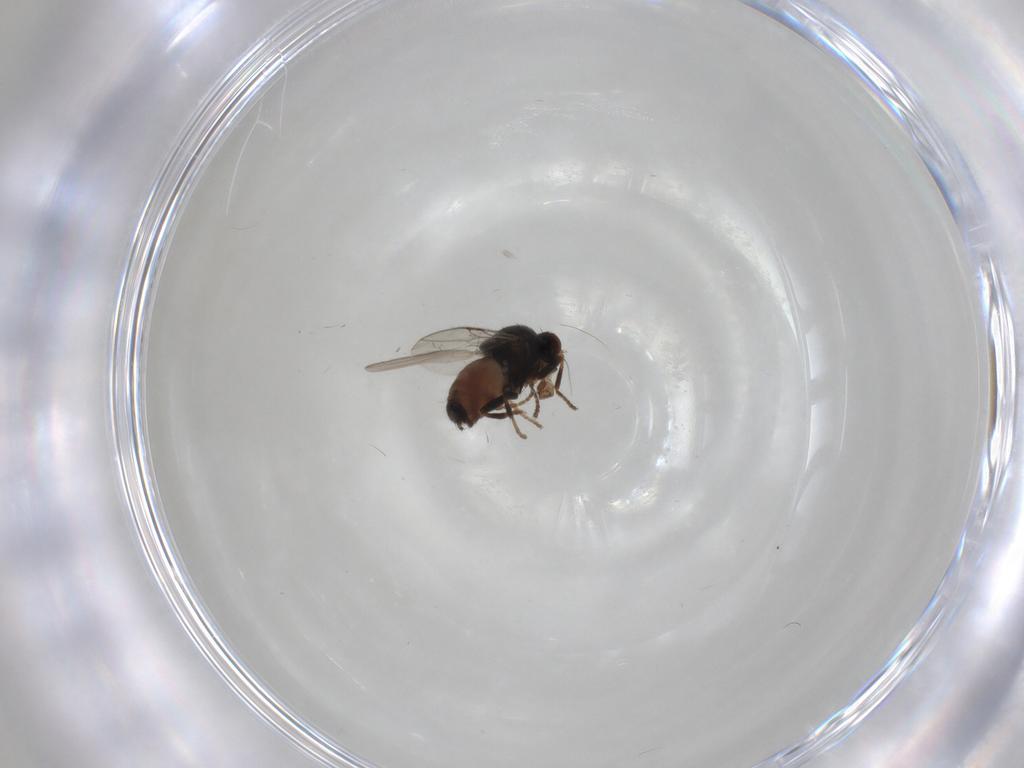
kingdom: Animalia
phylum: Arthropoda
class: Insecta
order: Diptera
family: Sphaeroceridae
